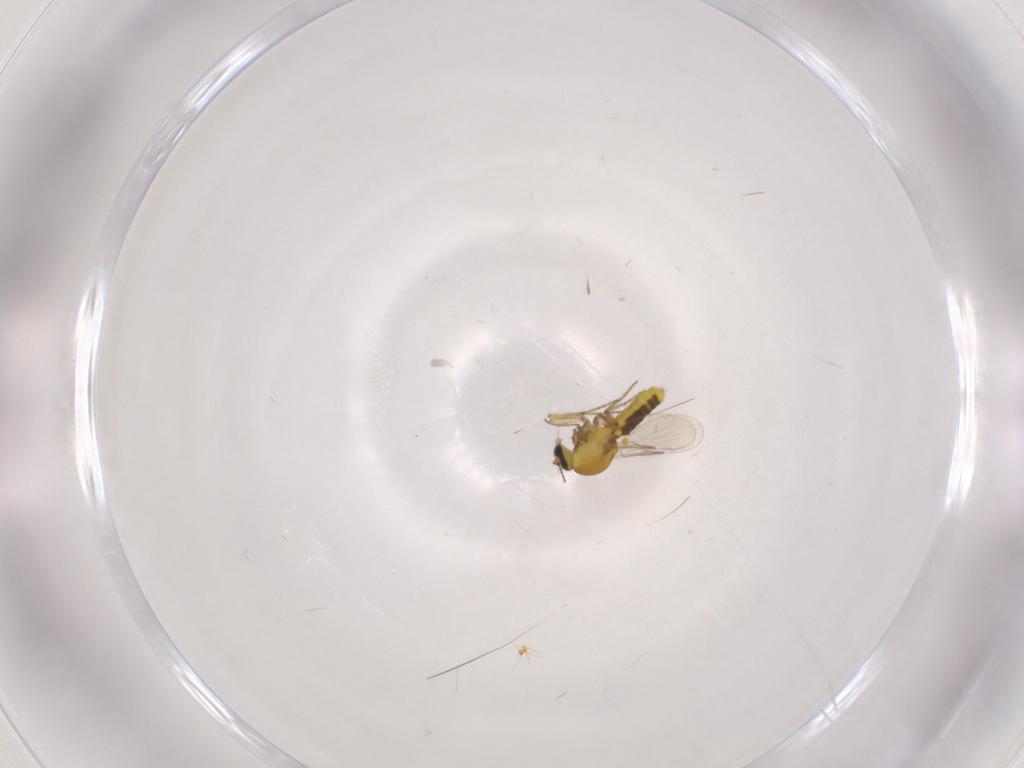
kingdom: Animalia
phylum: Arthropoda
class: Insecta
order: Diptera
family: Ceratopogonidae
